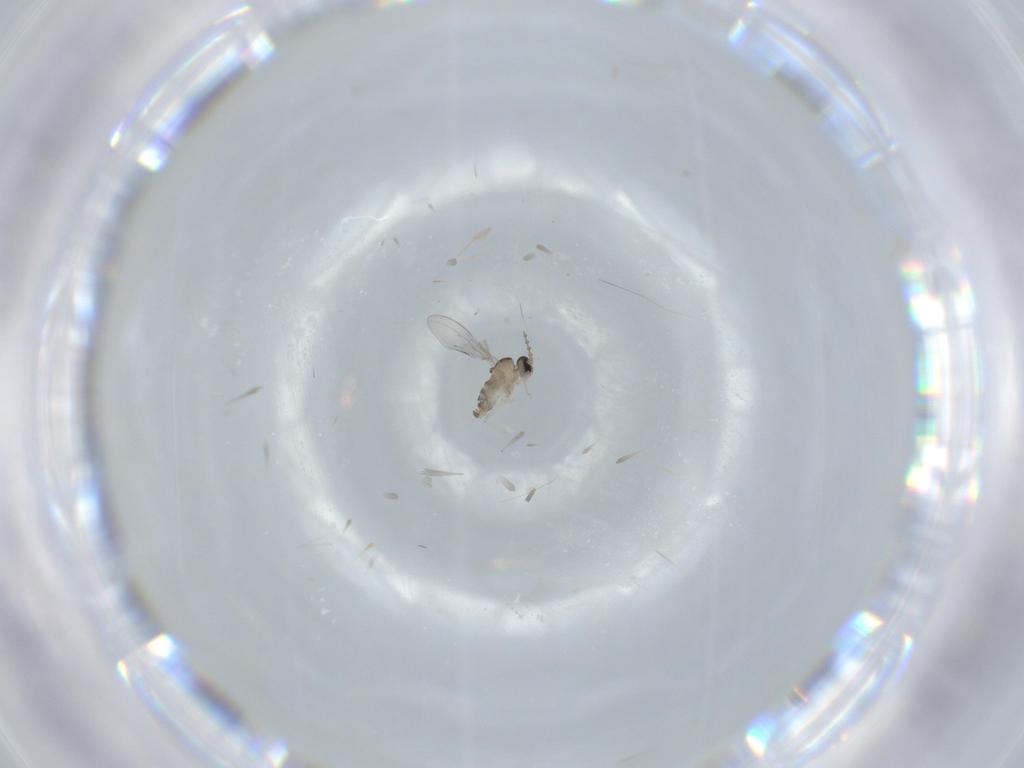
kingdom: Animalia
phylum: Arthropoda
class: Insecta
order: Diptera
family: Cecidomyiidae
